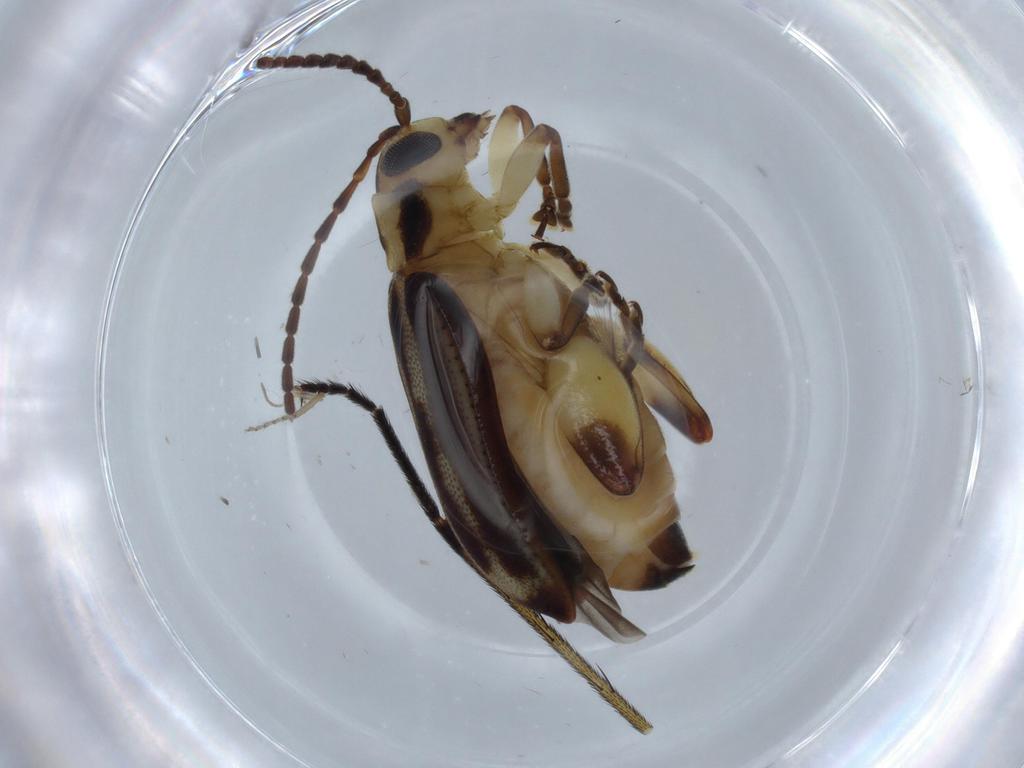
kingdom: Animalia
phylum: Arthropoda
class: Insecta
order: Coleoptera
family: Chrysomelidae
